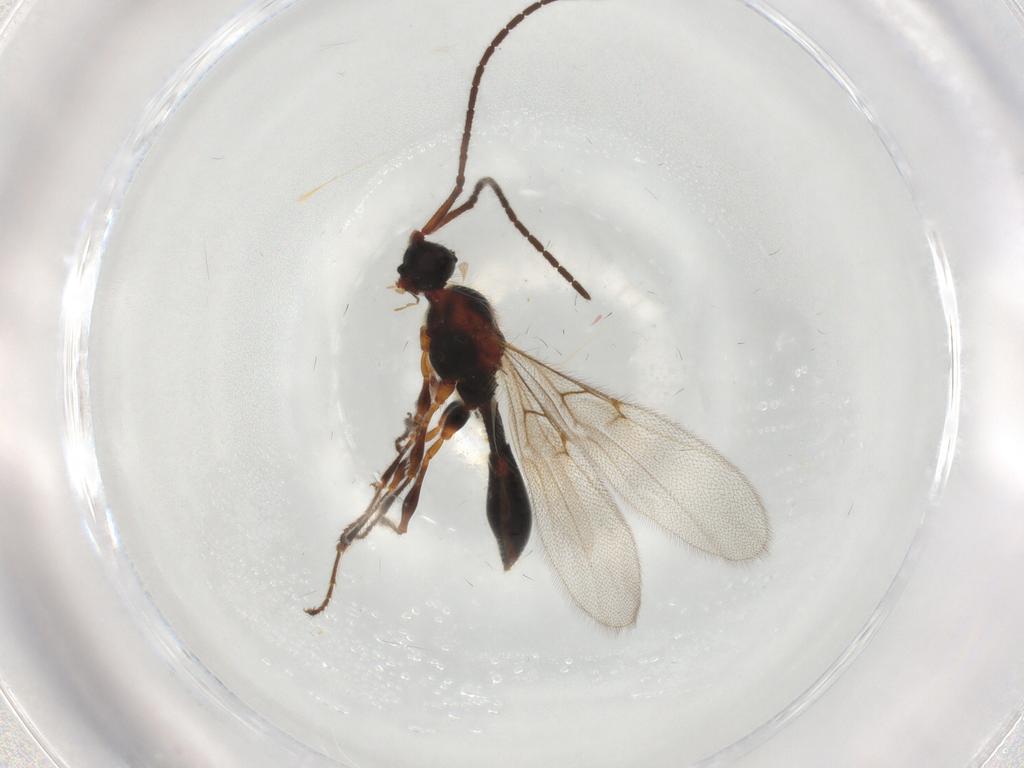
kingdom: Animalia
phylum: Arthropoda
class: Insecta
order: Hymenoptera
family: Diapriidae
